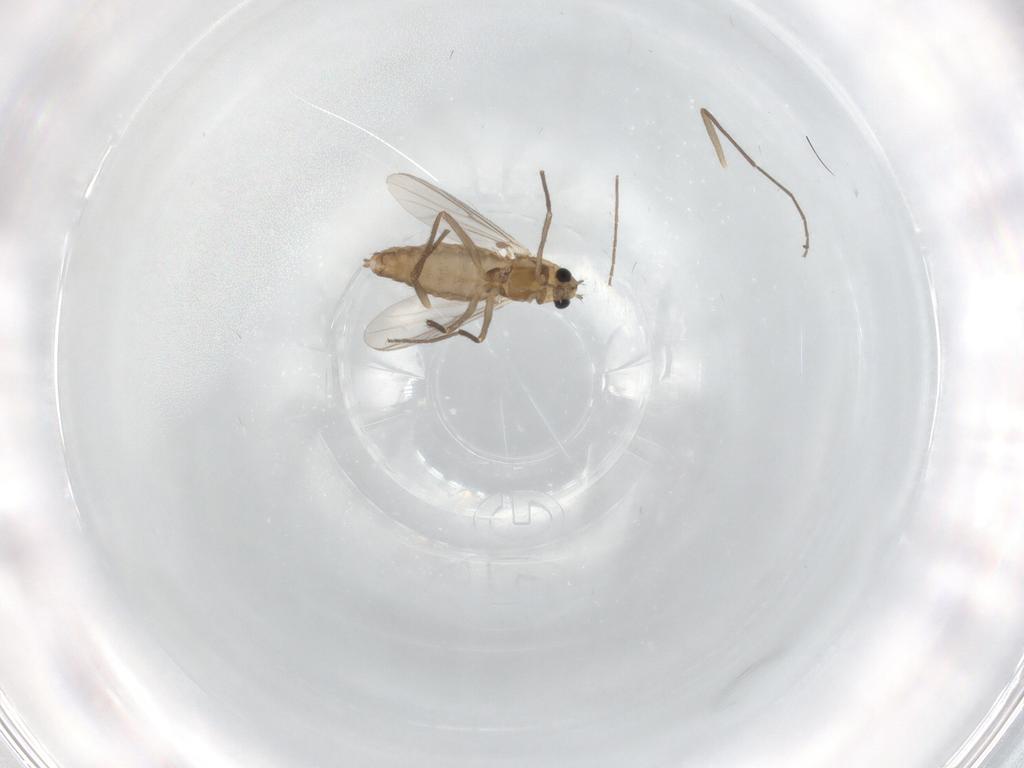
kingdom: Animalia
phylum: Arthropoda
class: Insecta
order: Diptera
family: Chironomidae
